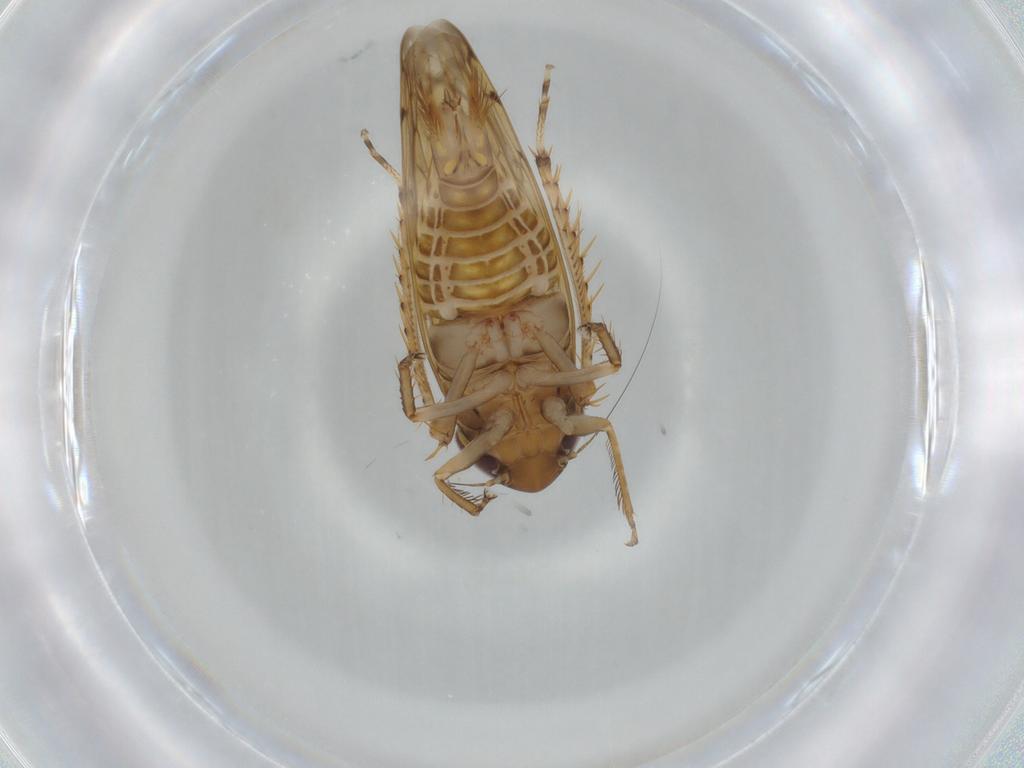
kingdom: Animalia
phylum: Arthropoda
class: Insecta
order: Hemiptera
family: Cicadellidae
